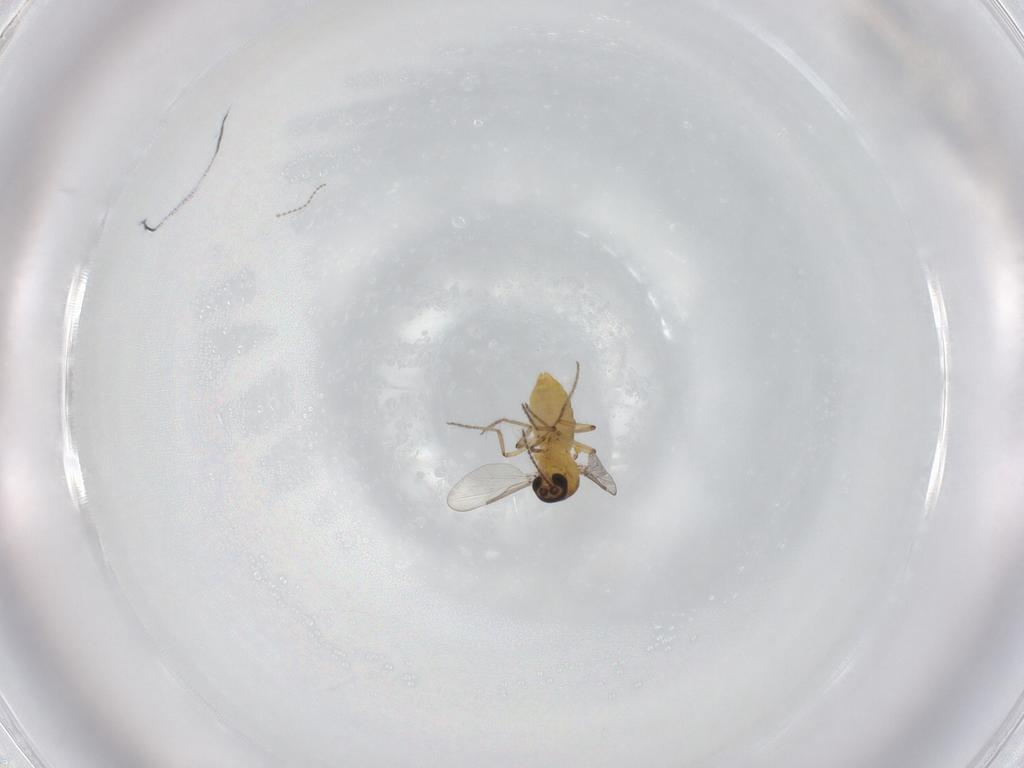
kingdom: Animalia
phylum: Arthropoda
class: Insecta
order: Diptera
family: Ceratopogonidae
